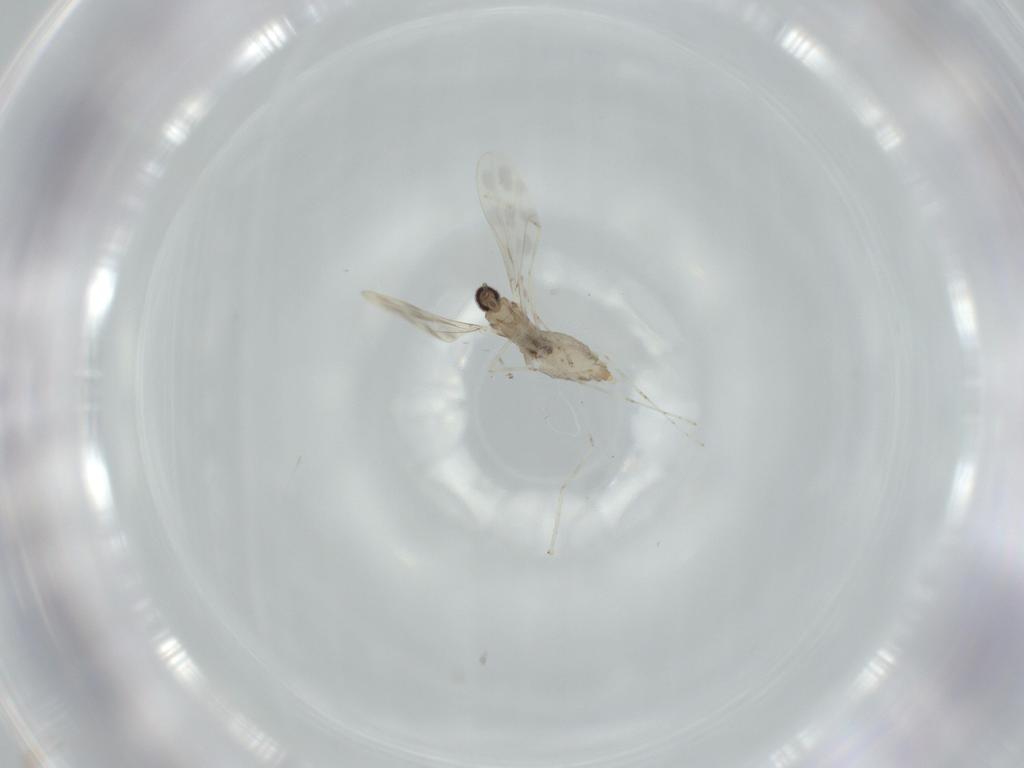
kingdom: Animalia
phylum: Arthropoda
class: Insecta
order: Diptera
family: Cecidomyiidae
